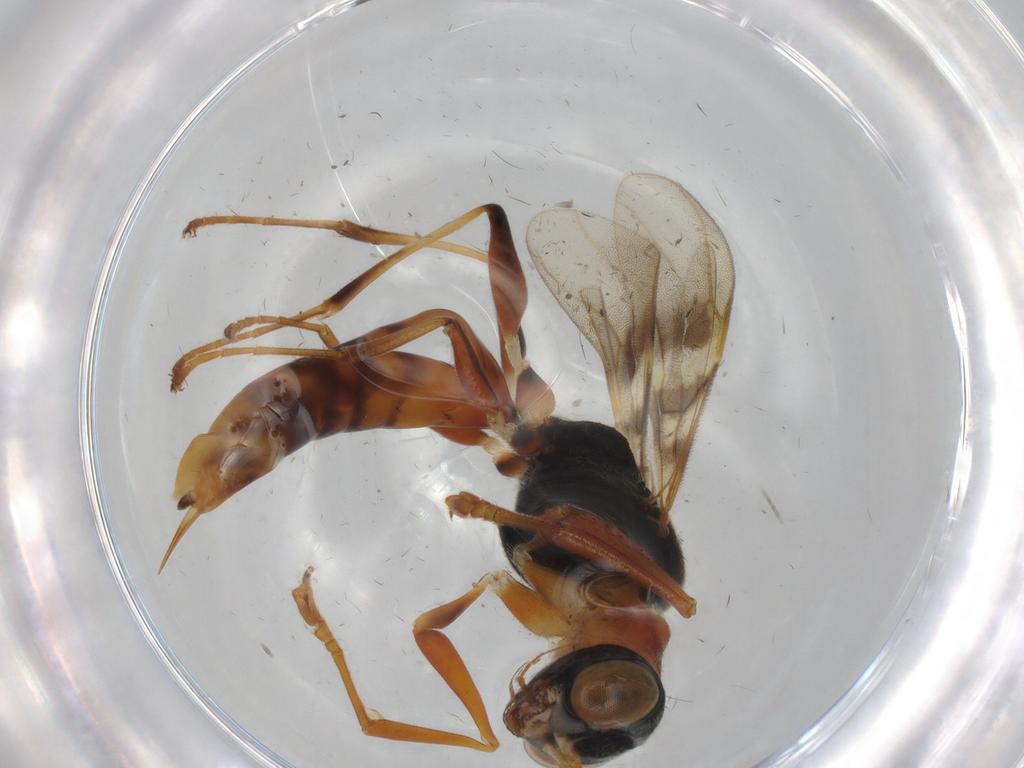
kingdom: Animalia
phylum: Arthropoda
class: Insecta
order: Hymenoptera
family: Dryinidae
